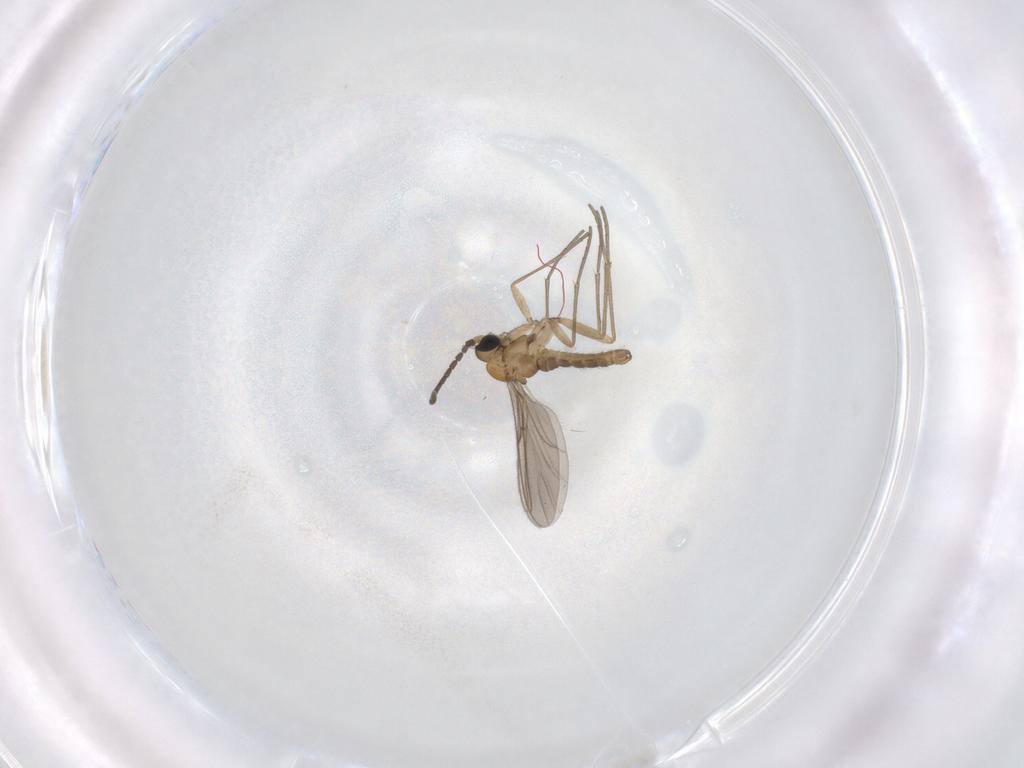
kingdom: Animalia
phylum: Arthropoda
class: Insecta
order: Diptera
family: Sciaridae
